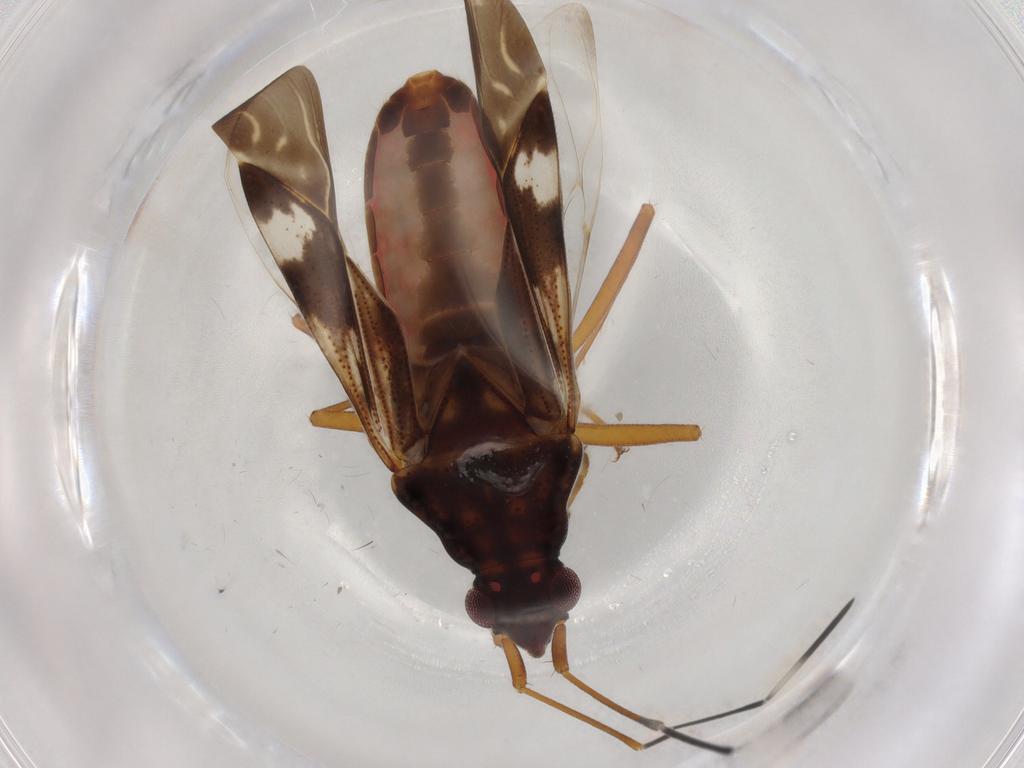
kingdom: Animalia
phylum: Arthropoda
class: Insecta
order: Hemiptera
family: Rhyparochromidae
